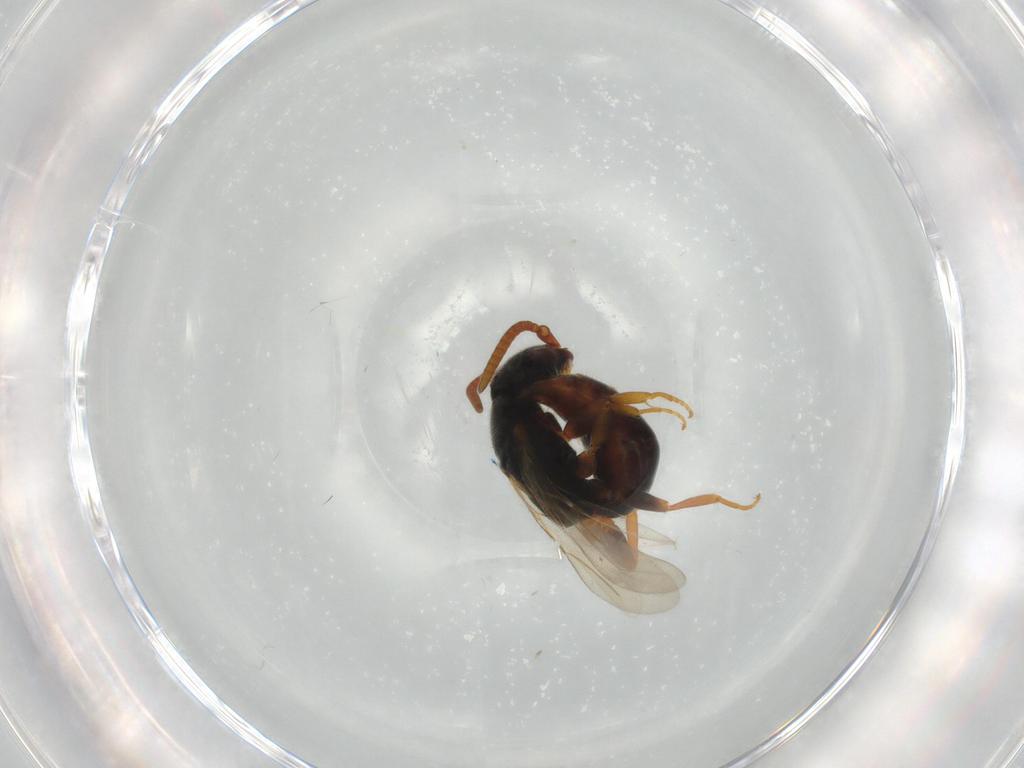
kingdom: Animalia
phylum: Arthropoda
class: Insecta
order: Hymenoptera
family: Bethylidae
